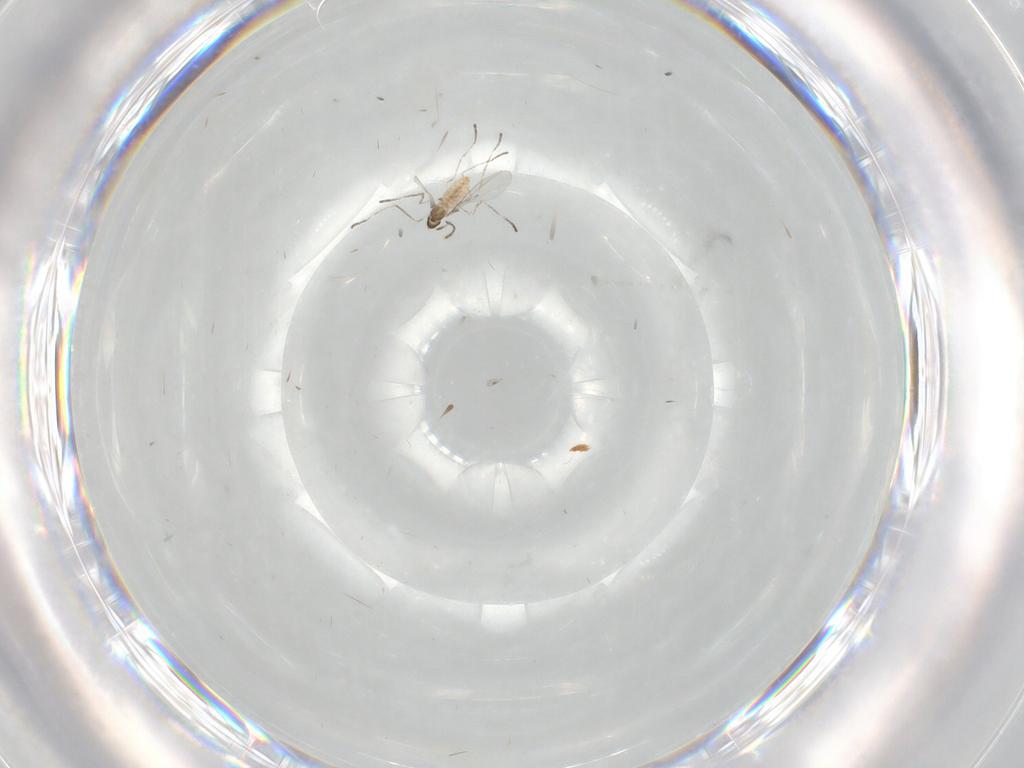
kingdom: Animalia
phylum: Arthropoda
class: Insecta
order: Diptera
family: Cecidomyiidae
